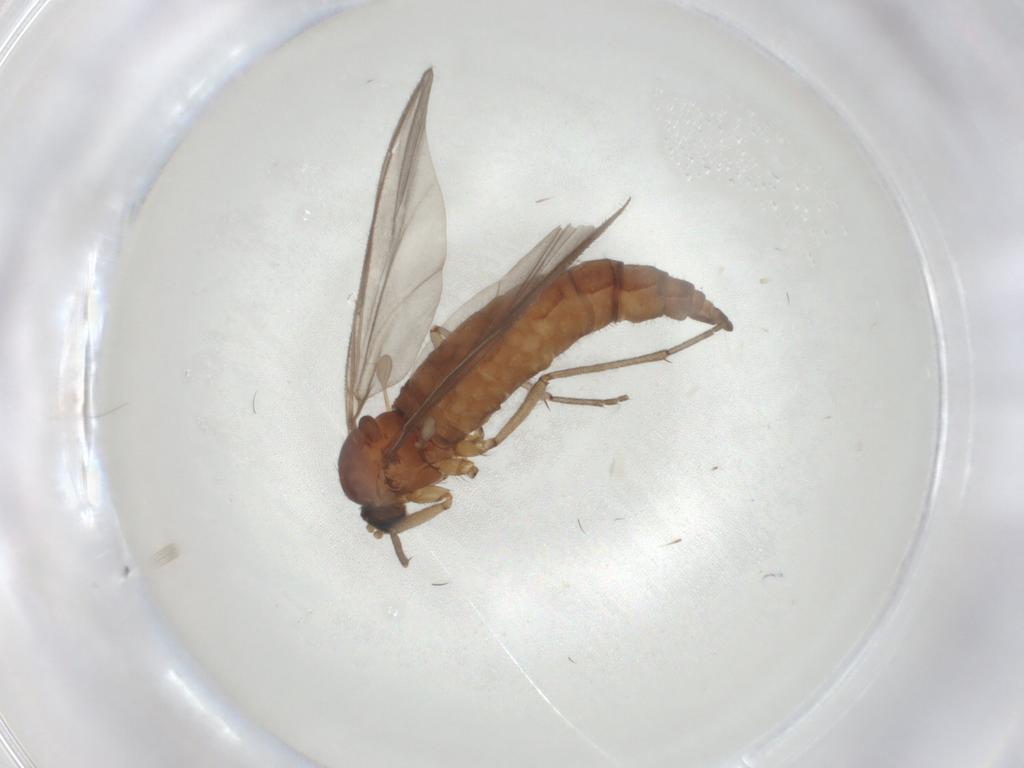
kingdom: Animalia
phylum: Arthropoda
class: Insecta
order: Diptera
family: Sciaridae
